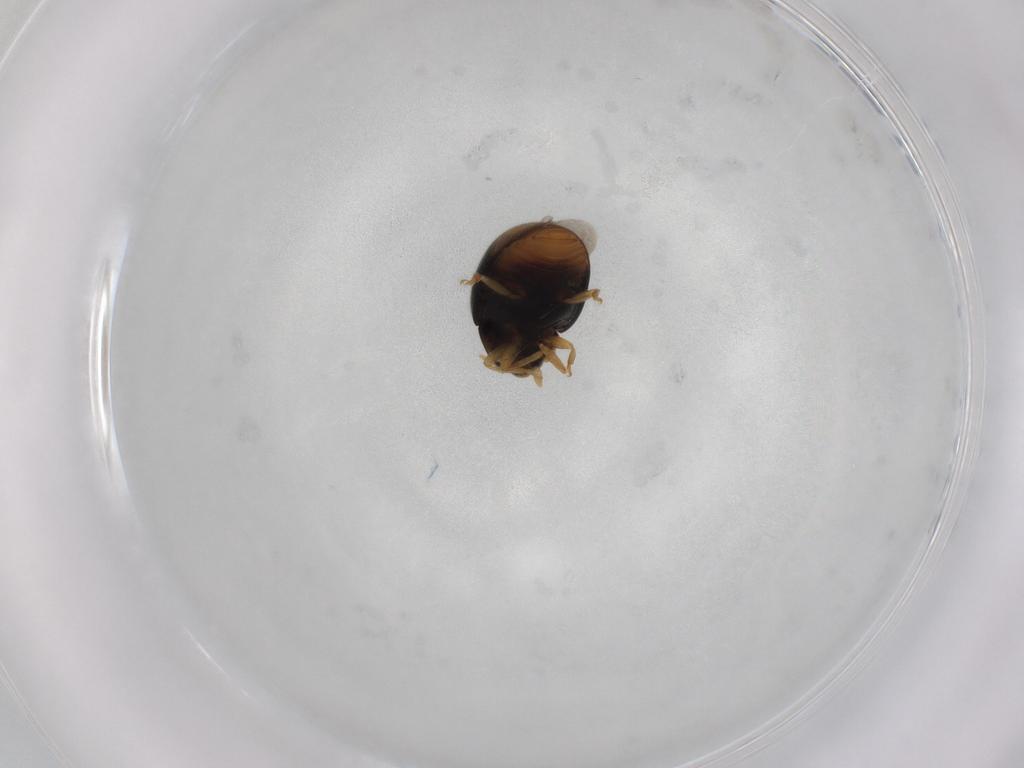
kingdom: Animalia
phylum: Arthropoda
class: Insecta
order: Coleoptera
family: Coccinellidae
